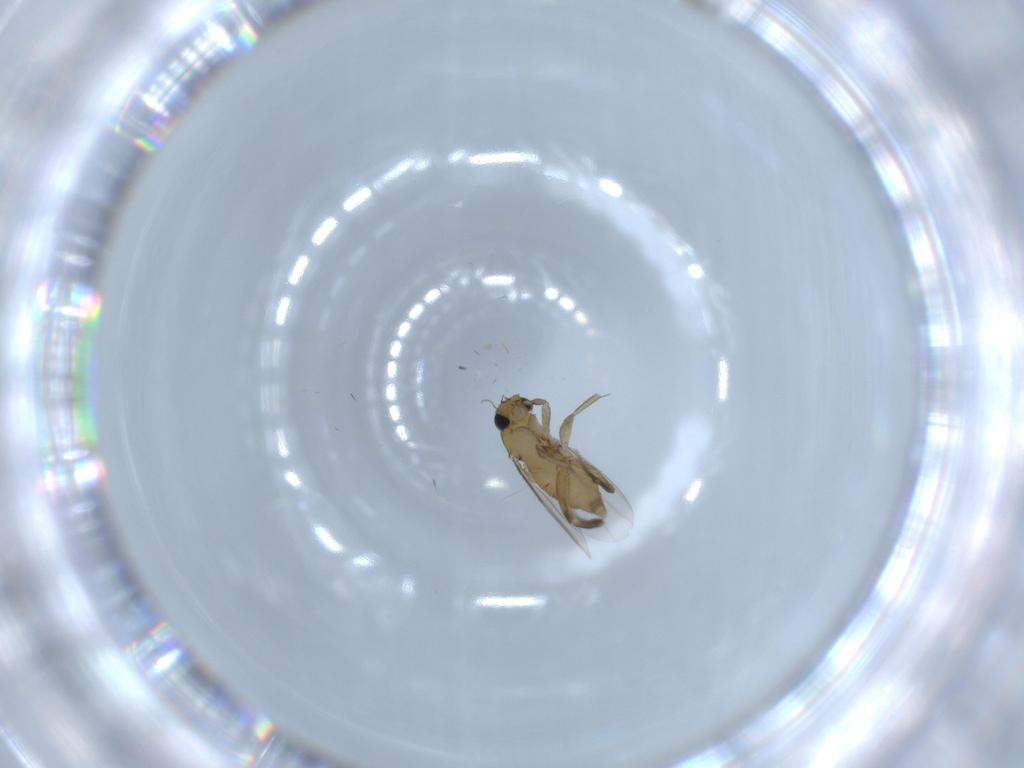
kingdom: Animalia
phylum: Arthropoda
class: Insecta
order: Diptera
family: Phoridae
